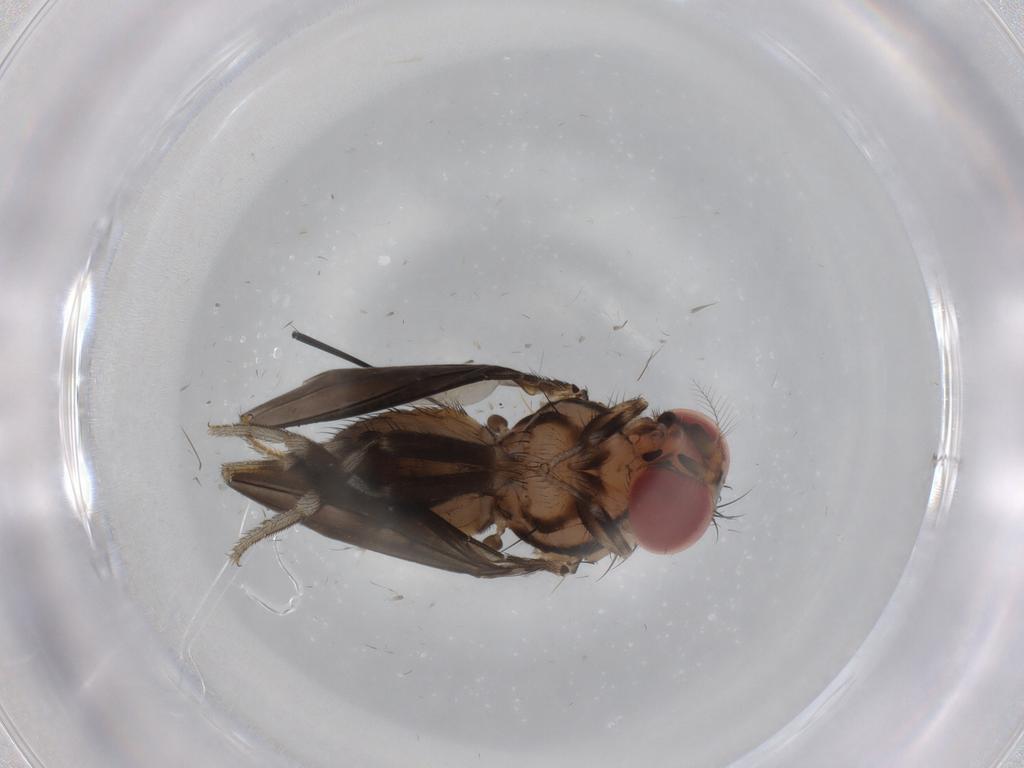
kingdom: Animalia
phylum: Arthropoda
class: Insecta
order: Diptera
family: Drosophilidae
